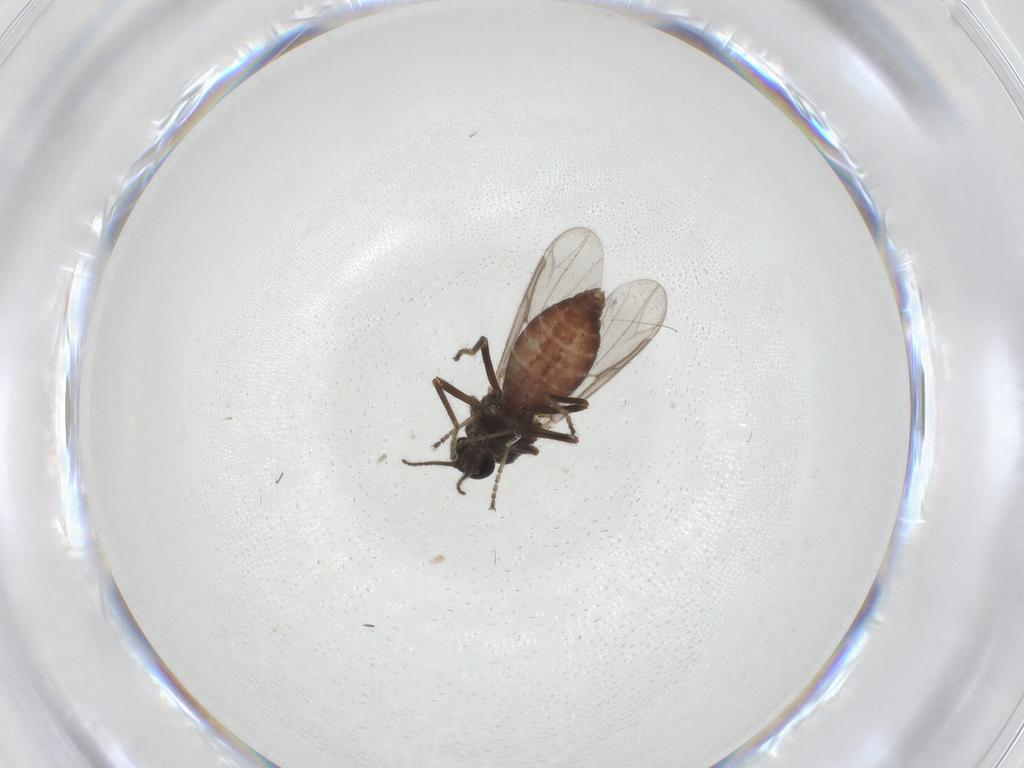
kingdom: Animalia
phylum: Arthropoda
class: Insecta
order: Diptera
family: Ceratopogonidae
